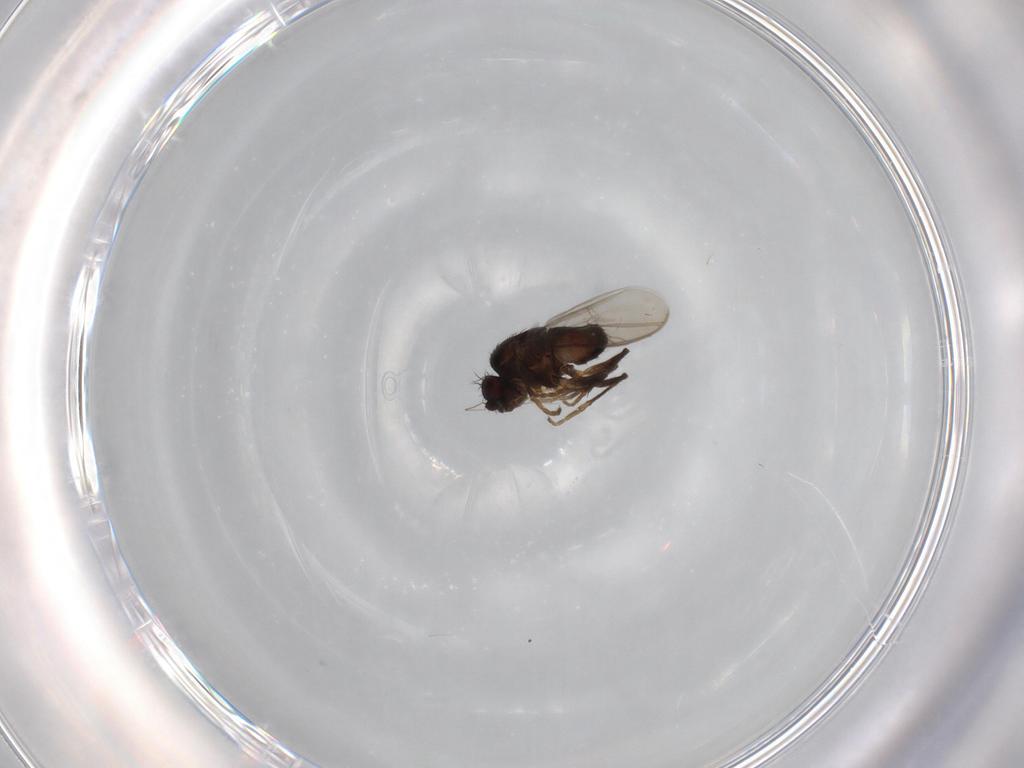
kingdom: Animalia
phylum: Arthropoda
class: Insecta
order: Diptera
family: Sphaeroceridae
